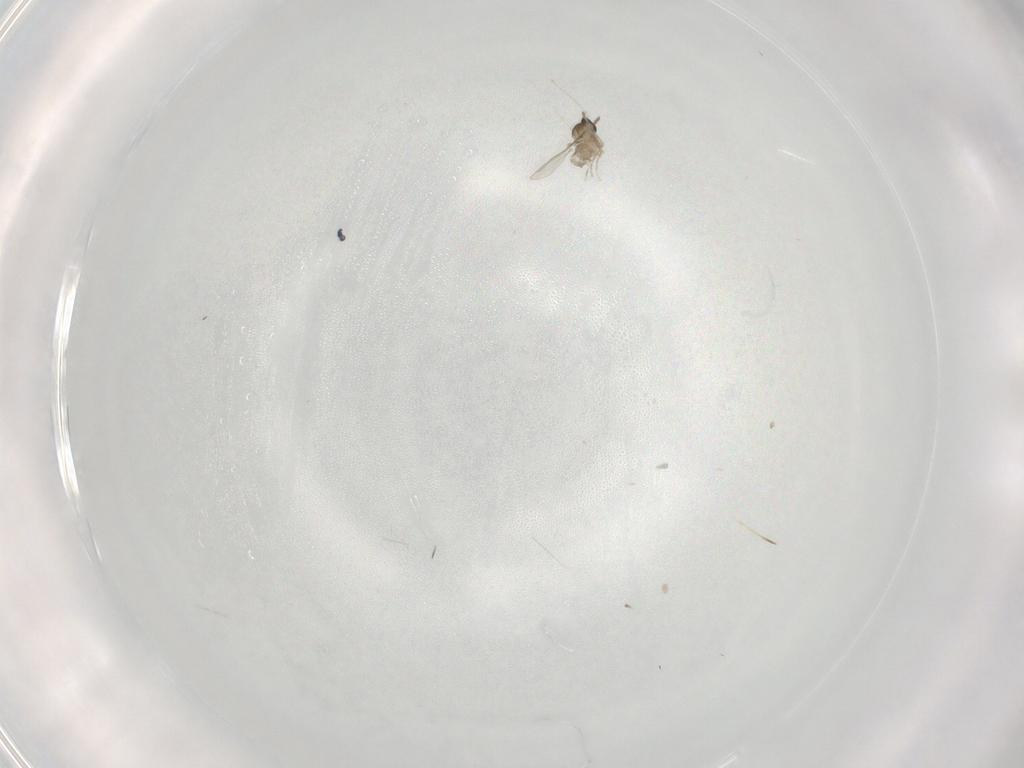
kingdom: Animalia
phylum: Arthropoda
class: Insecta
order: Diptera
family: Cecidomyiidae
